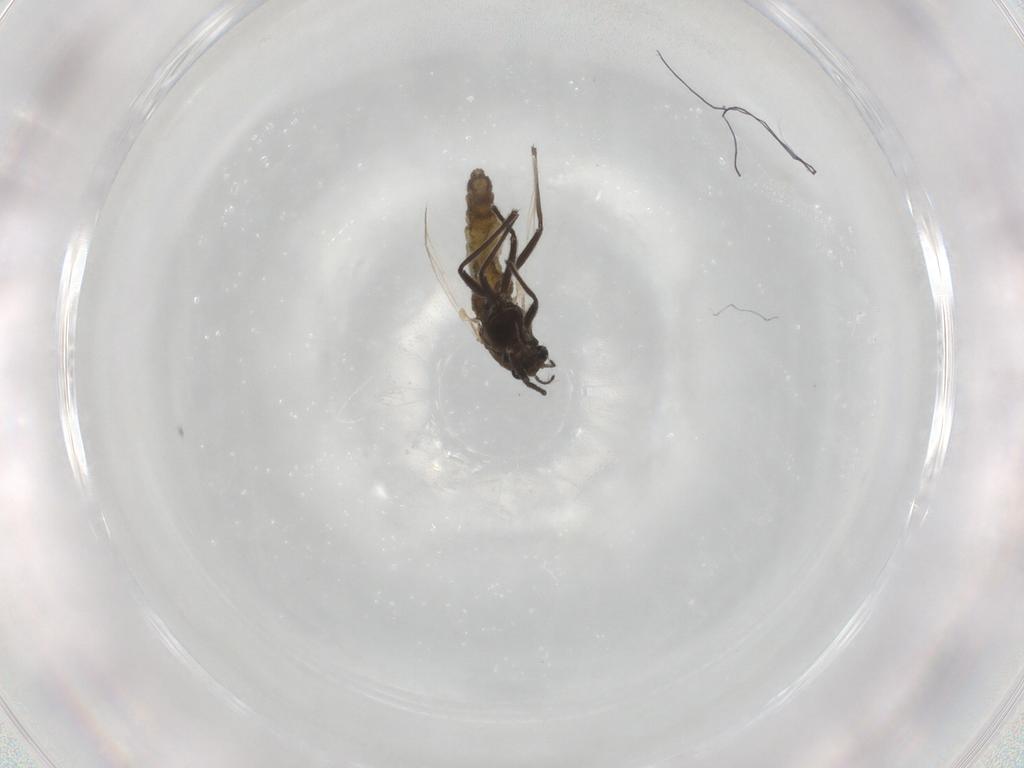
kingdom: Animalia
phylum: Arthropoda
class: Insecta
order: Diptera
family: Chironomidae
